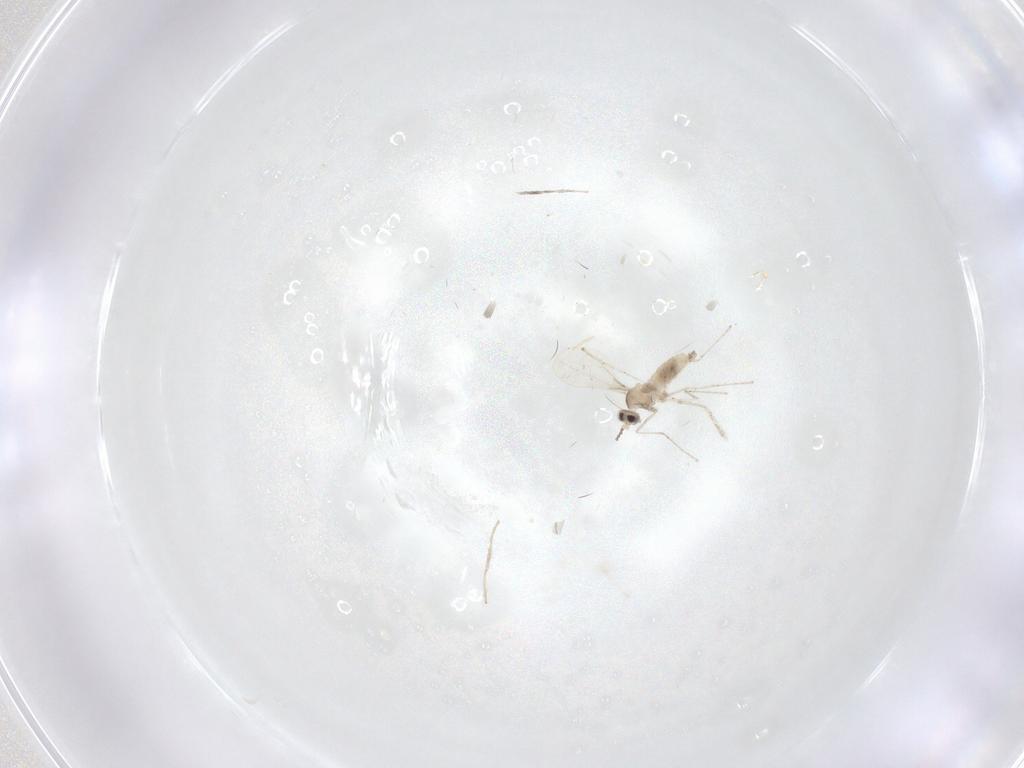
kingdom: Animalia
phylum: Arthropoda
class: Insecta
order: Diptera
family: Cecidomyiidae
